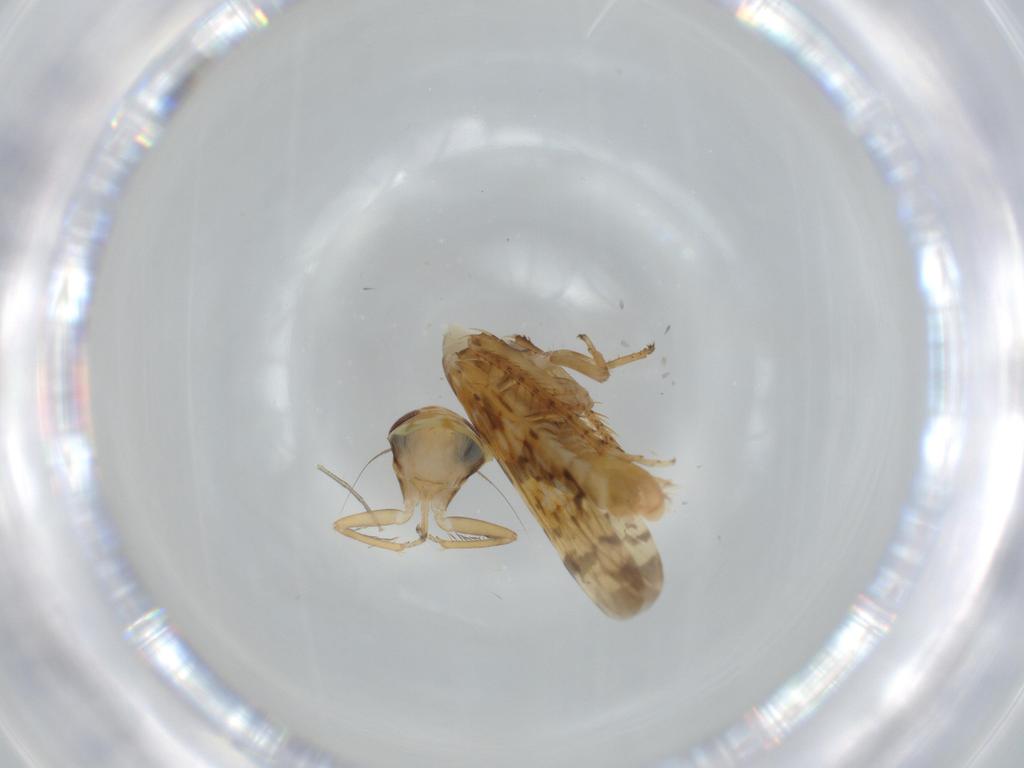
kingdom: Animalia
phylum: Arthropoda
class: Insecta
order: Hemiptera
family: Cicadellidae
